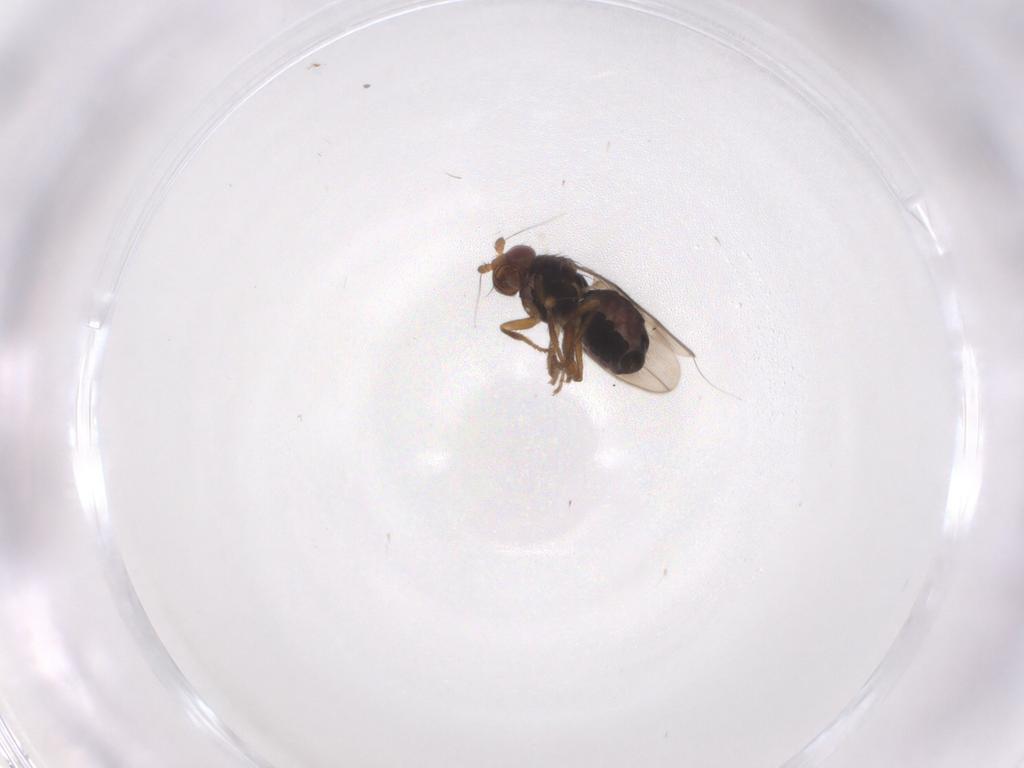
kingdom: Animalia
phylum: Arthropoda
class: Insecta
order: Diptera
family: Sphaeroceridae
